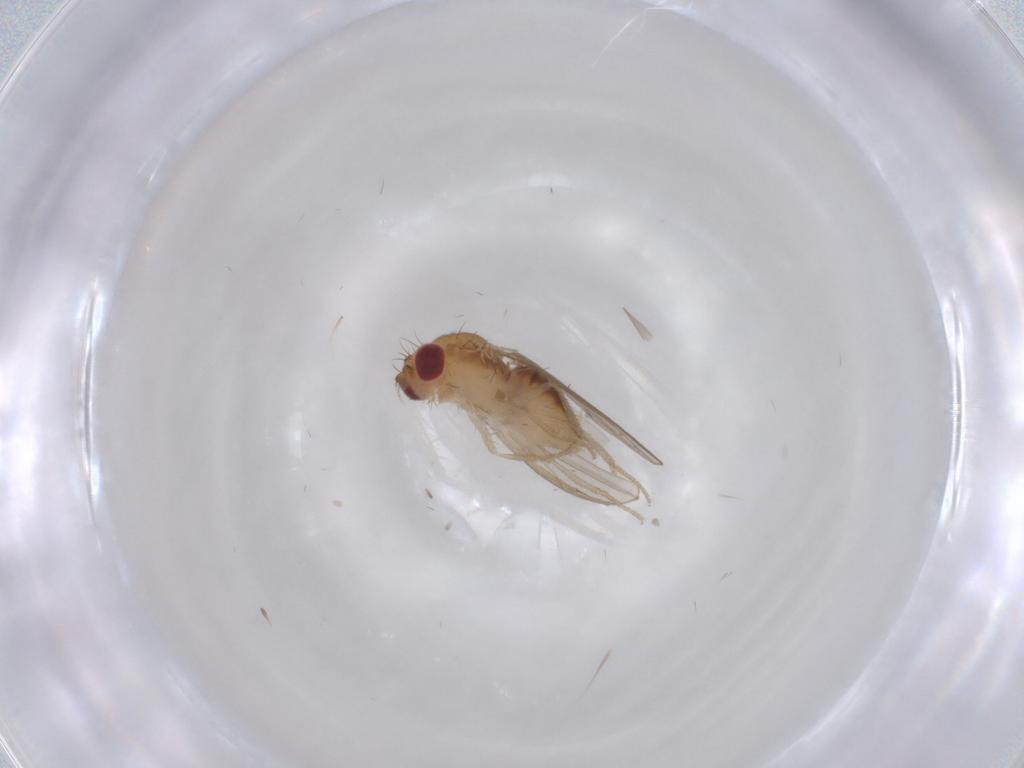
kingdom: Animalia
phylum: Arthropoda
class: Insecta
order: Diptera
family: Drosophilidae
